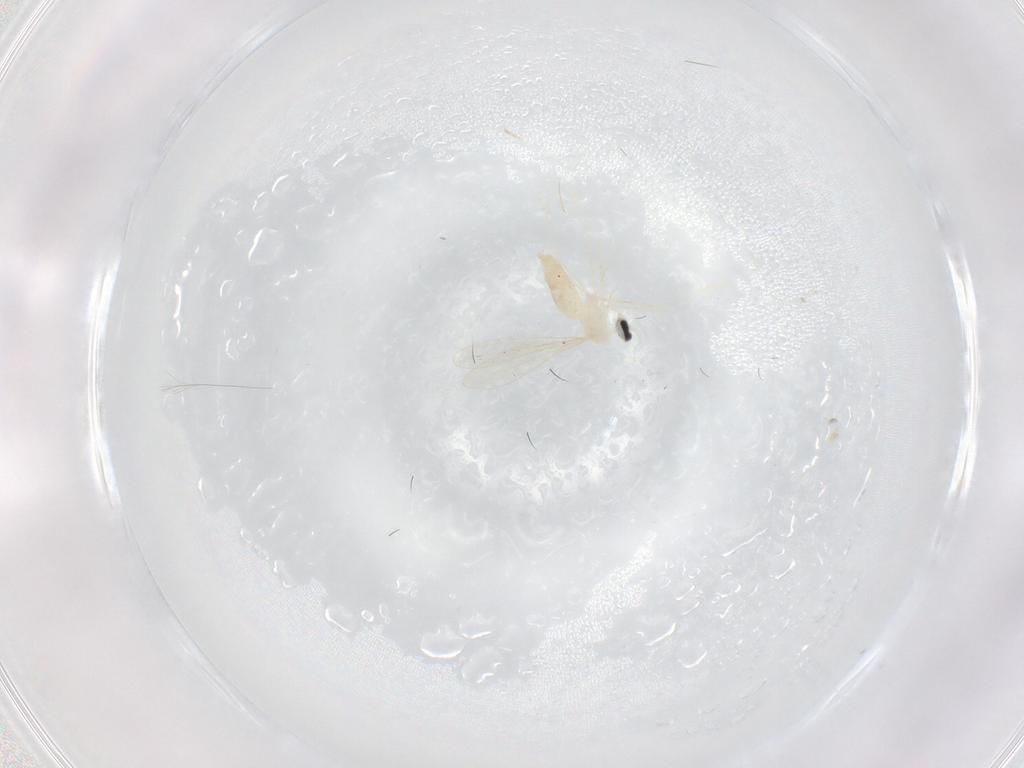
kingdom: Animalia
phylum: Arthropoda
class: Insecta
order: Diptera
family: Cecidomyiidae
